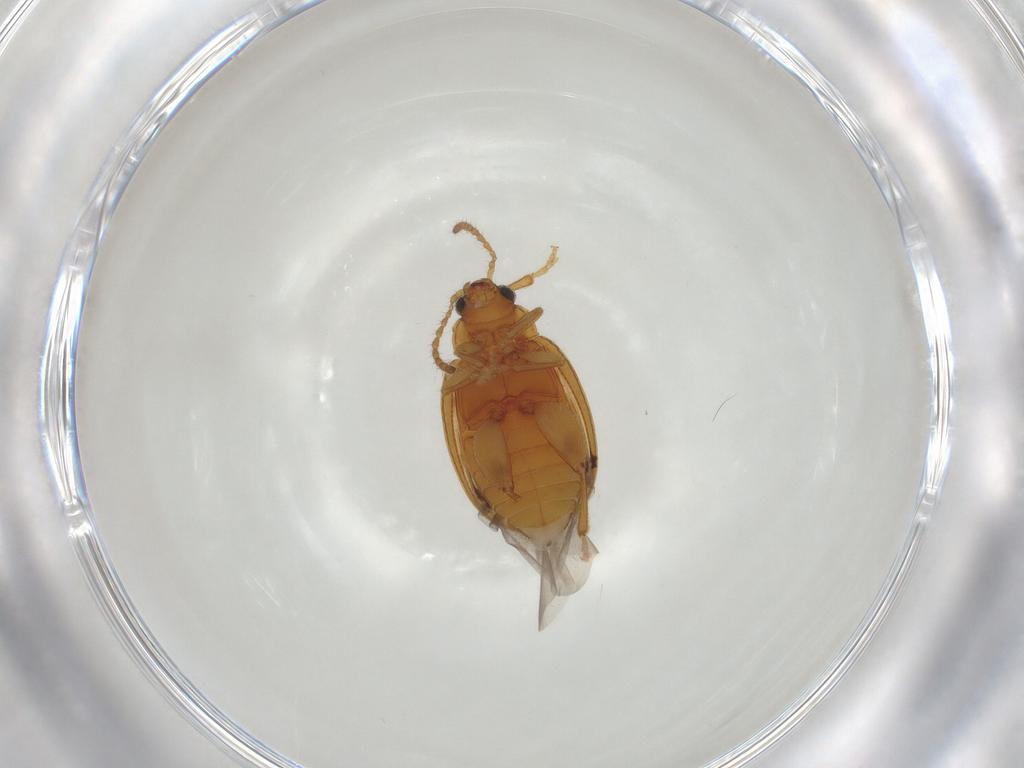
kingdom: Animalia
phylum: Arthropoda
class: Insecta
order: Coleoptera
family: Chrysomelidae
